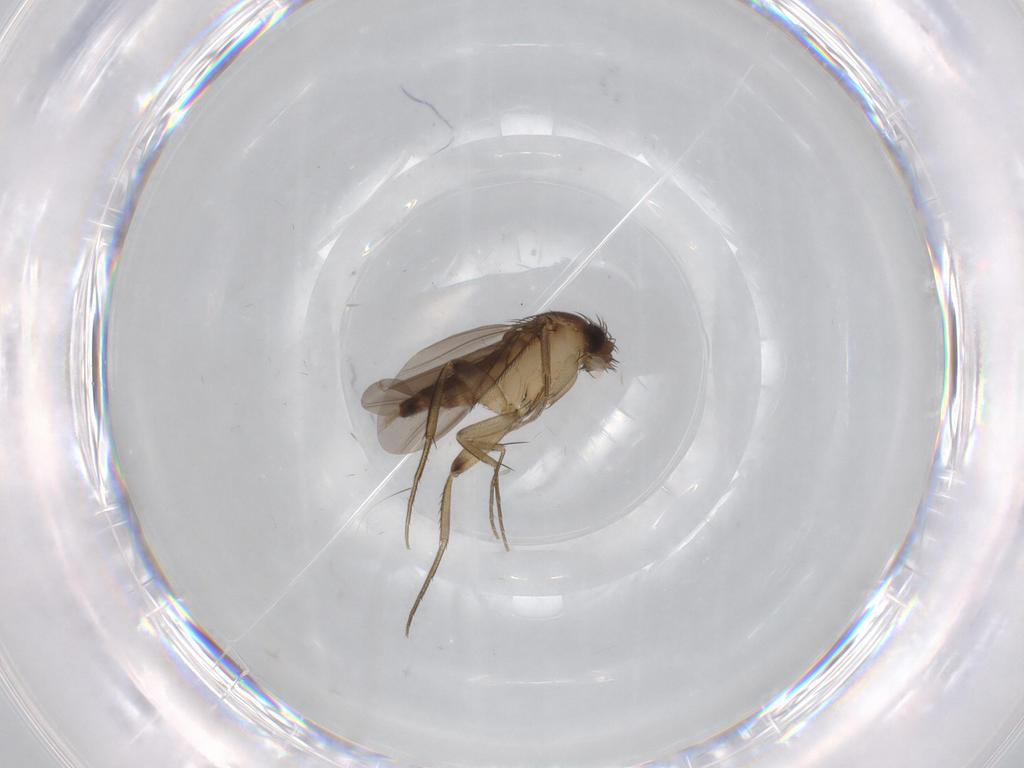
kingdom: Animalia
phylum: Arthropoda
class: Insecta
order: Diptera
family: Phoridae
